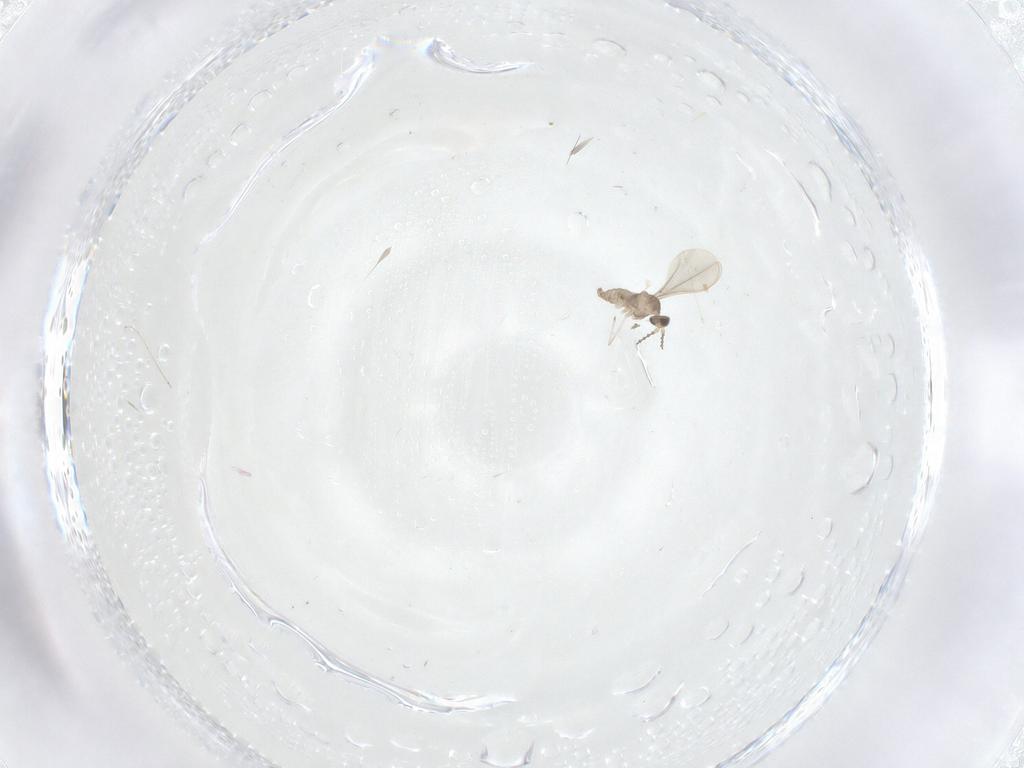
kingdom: Animalia
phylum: Arthropoda
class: Insecta
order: Diptera
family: Cecidomyiidae
